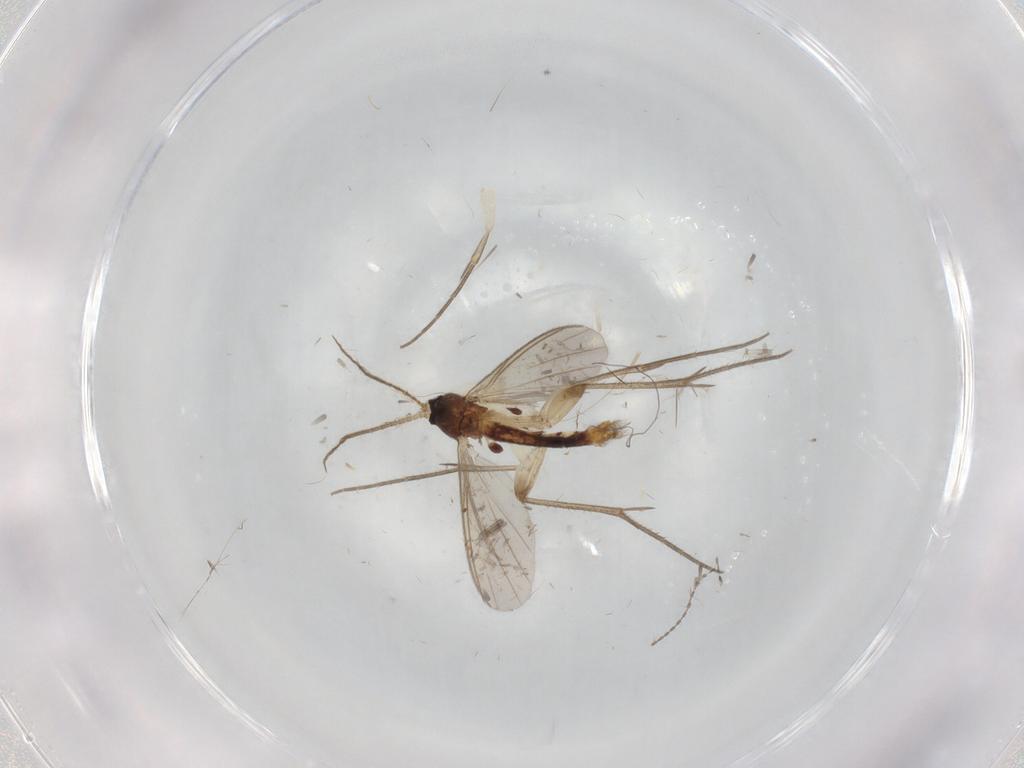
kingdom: Animalia
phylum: Arthropoda
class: Insecta
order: Diptera
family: Mycetophilidae
